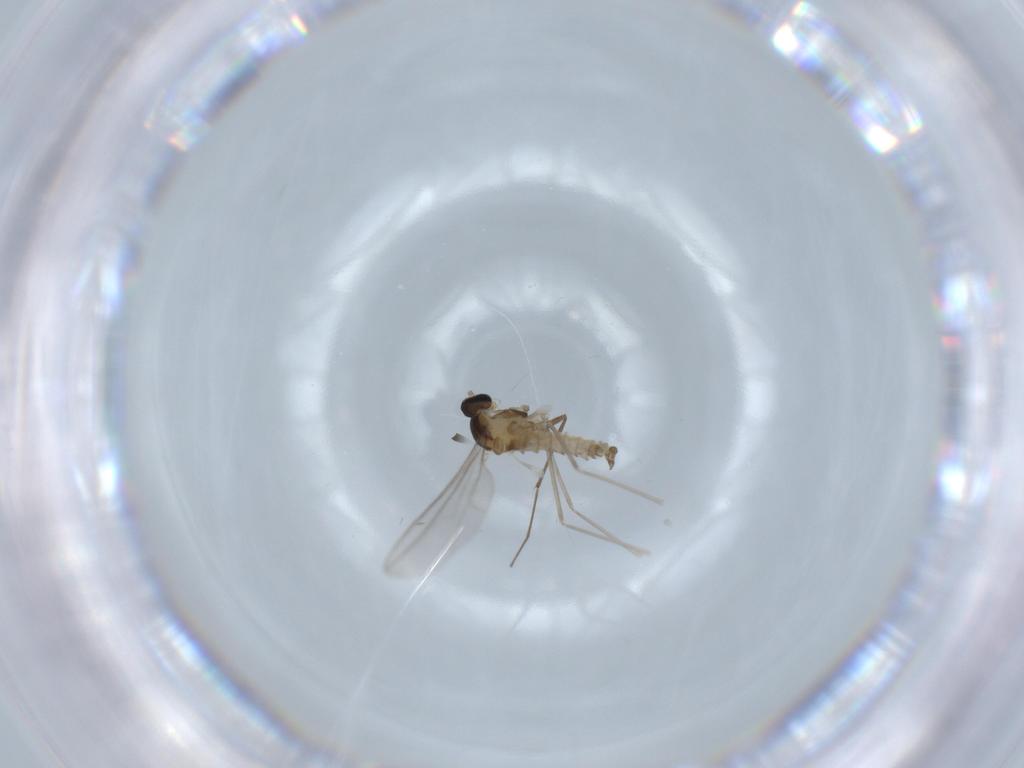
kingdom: Animalia
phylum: Arthropoda
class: Insecta
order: Diptera
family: Cecidomyiidae
